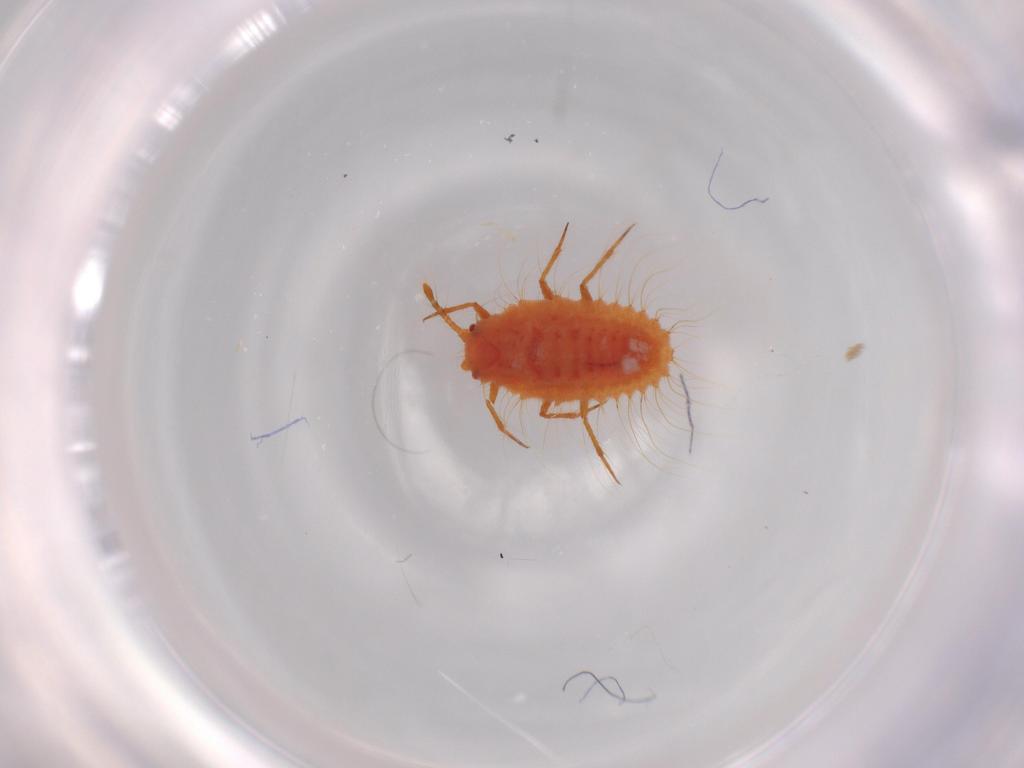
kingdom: Animalia
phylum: Arthropoda
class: Insecta
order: Hemiptera
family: Coccoidea_incertae_sedis
